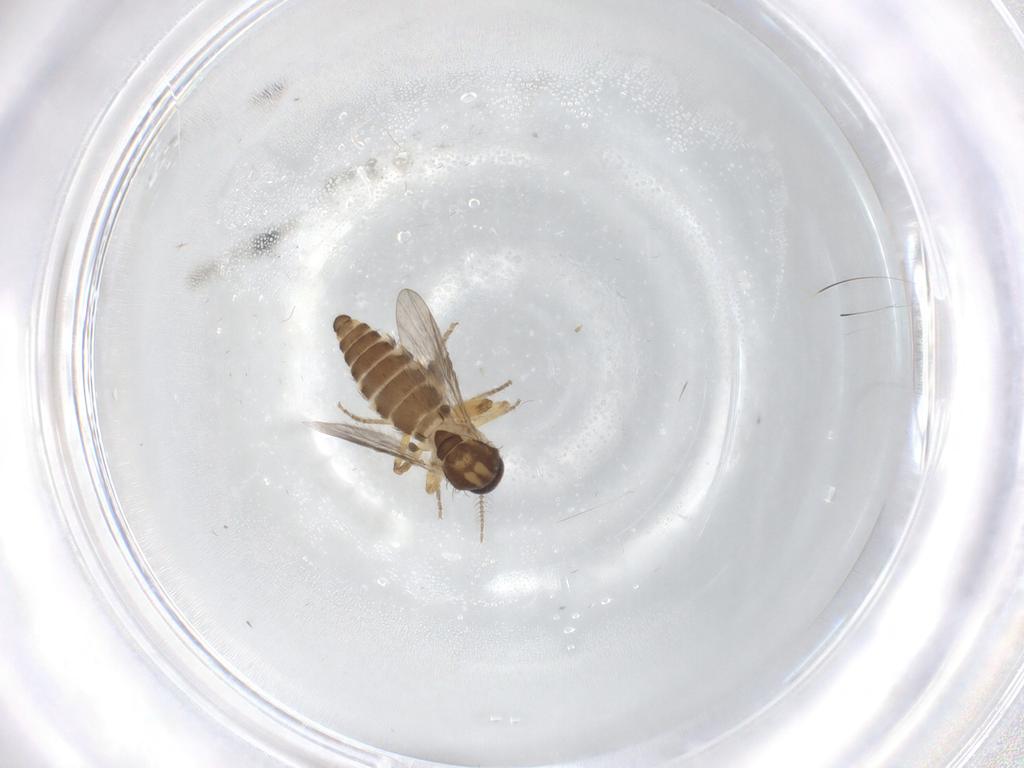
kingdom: Animalia
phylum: Arthropoda
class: Insecta
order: Diptera
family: Ceratopogonidae
